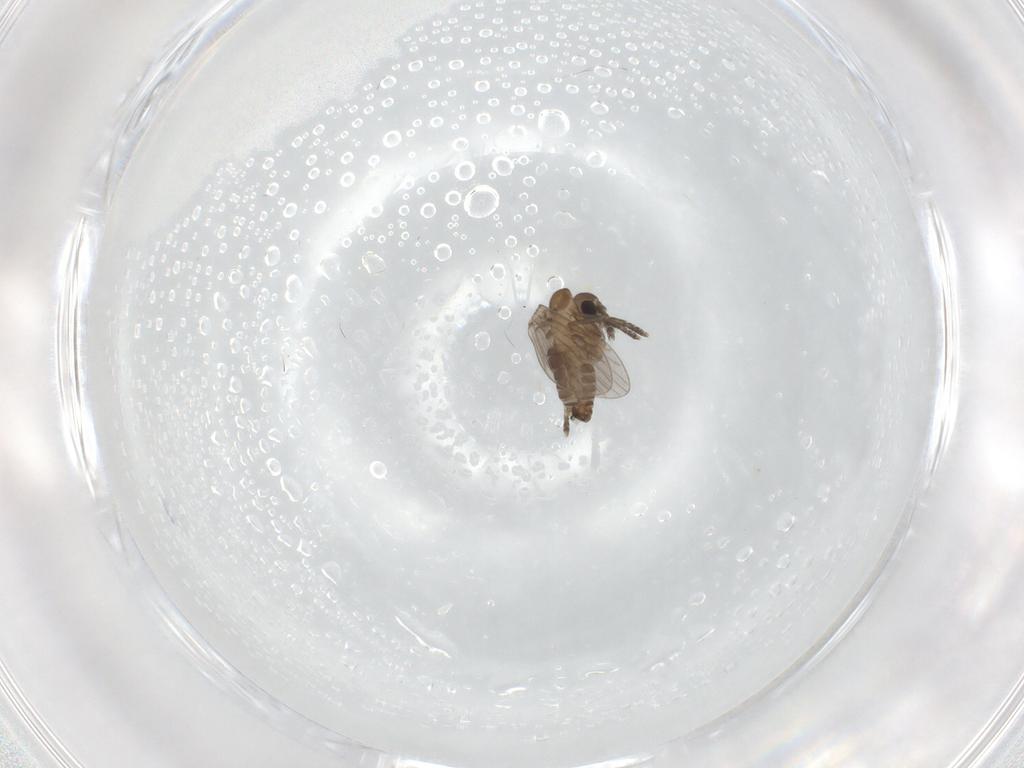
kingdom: Animalia
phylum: Arthropoda
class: Insecta
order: Diptera
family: Psychodidae
